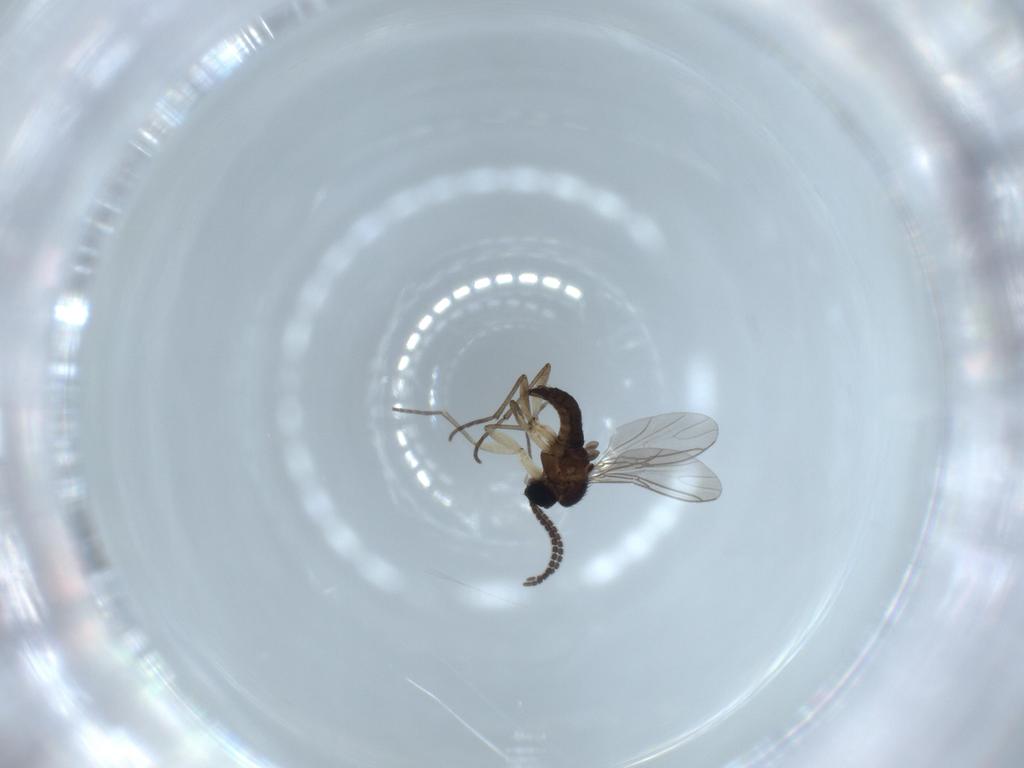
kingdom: Animalia
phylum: Arthropoda
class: Insecta
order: Diptera
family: Sciaridae
